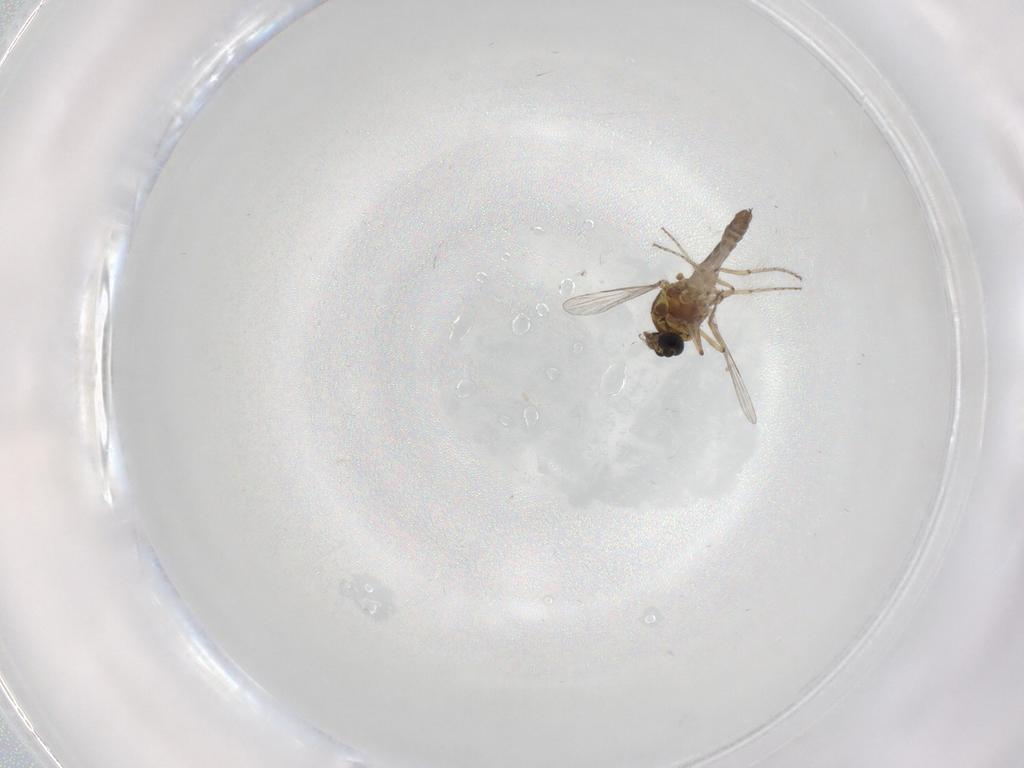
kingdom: Animalia
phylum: Arthropoda
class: Insecta
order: Diptera
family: Ceratopogonidae
